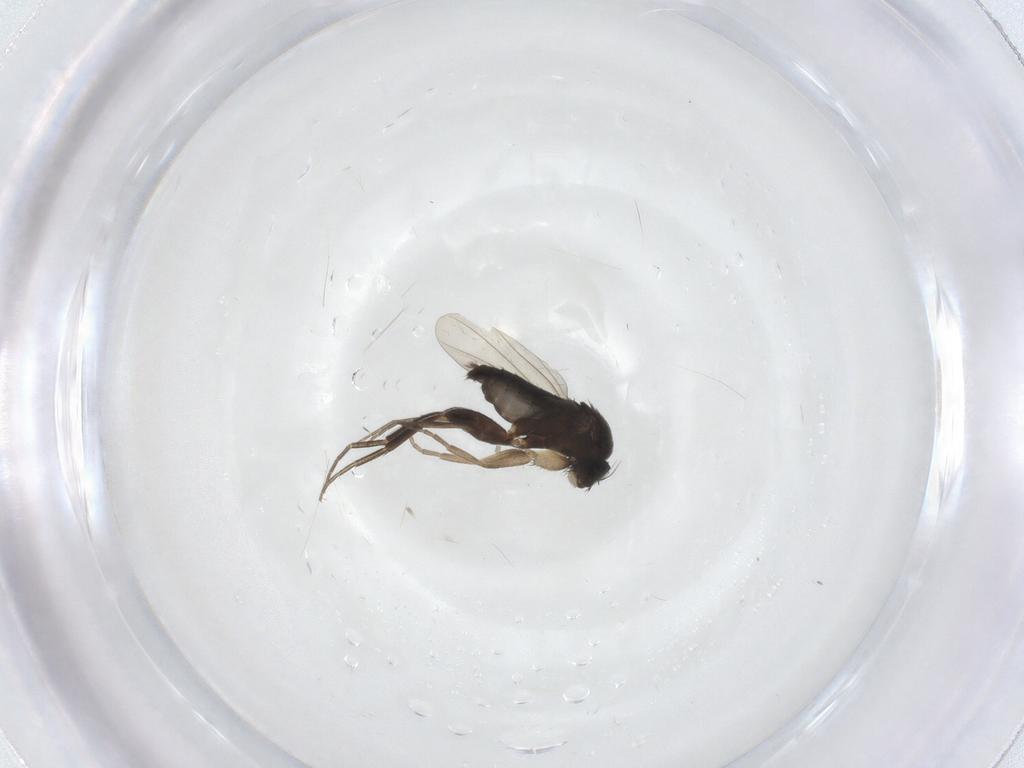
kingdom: Animalia
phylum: Arthropoda
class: Insecta
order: Diptera
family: Phoridae
